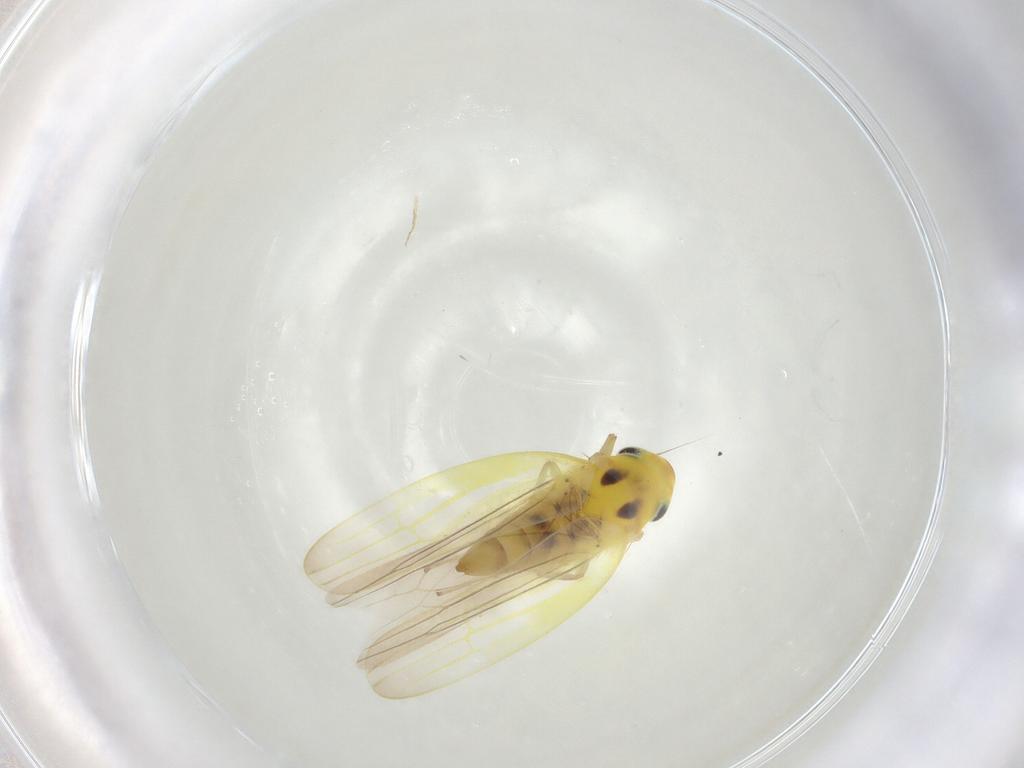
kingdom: Animalia
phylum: Arthropoda
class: Insecta
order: Hemiptera
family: Cicadellidae
